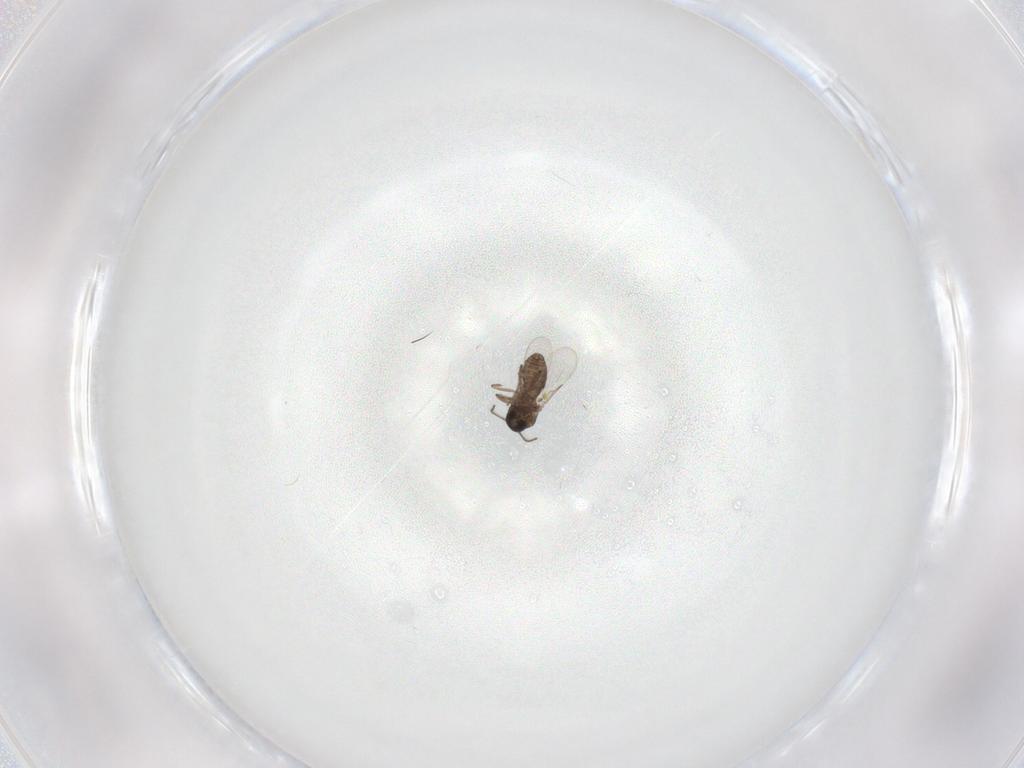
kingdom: Animalia
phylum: Arthropoda
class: Insecta
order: Diptera
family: Ceratopogonidae
